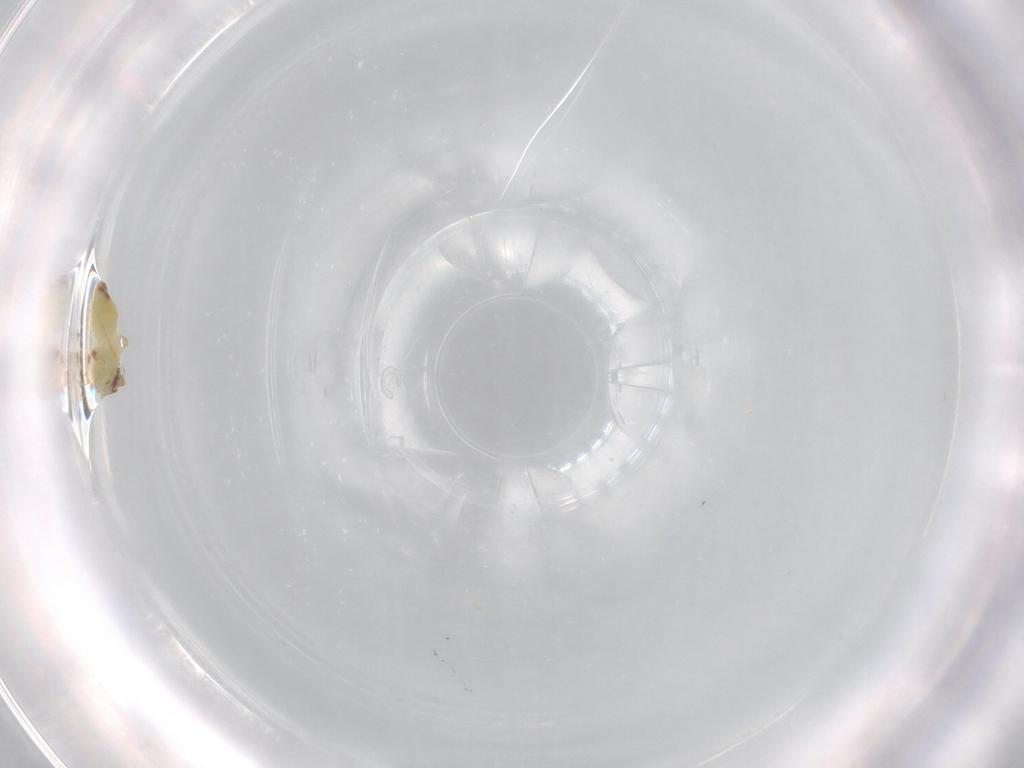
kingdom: Animalia
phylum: Arthropoda
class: Insecta
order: Hemiptera
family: Aleyrodidae
